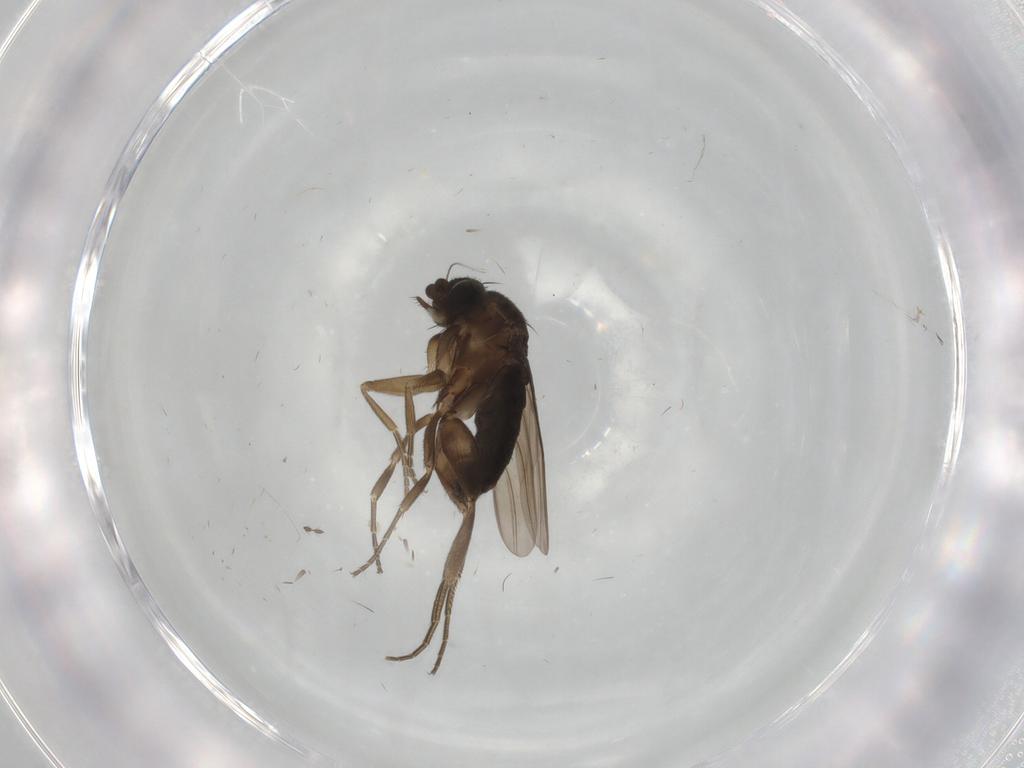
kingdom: Animalia
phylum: Arthropoda
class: Insecta
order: Diptera
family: Phoridae
